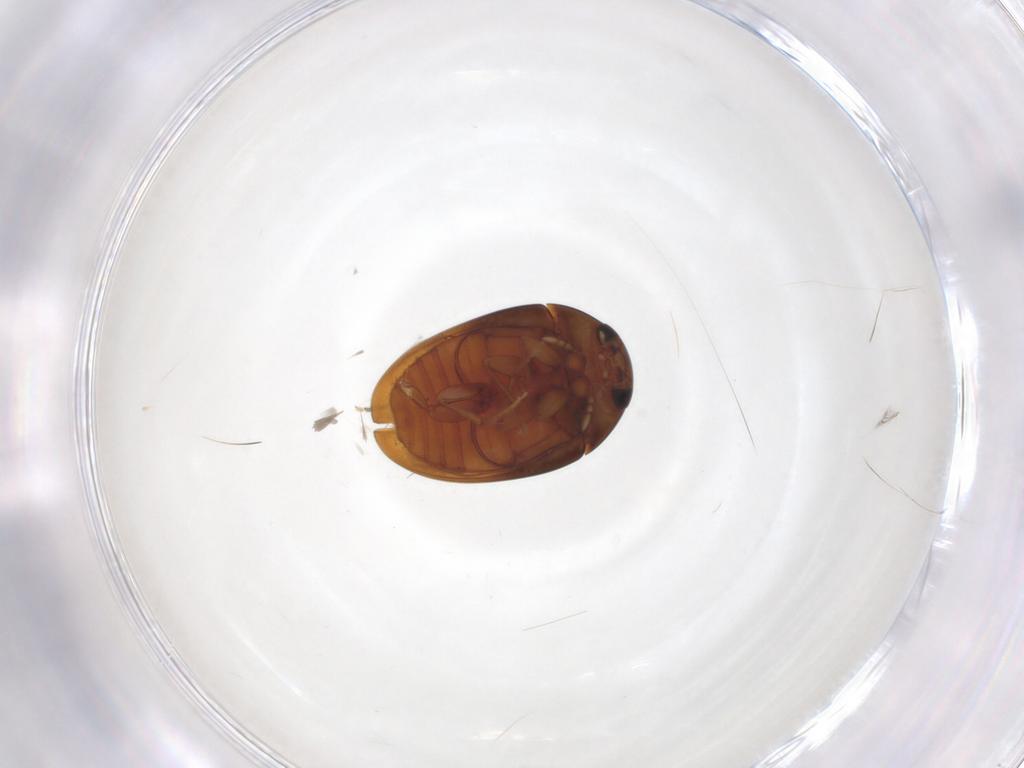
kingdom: Animalia
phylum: Arthropoda
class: Insecta
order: Coleoptera
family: Phalacridae
